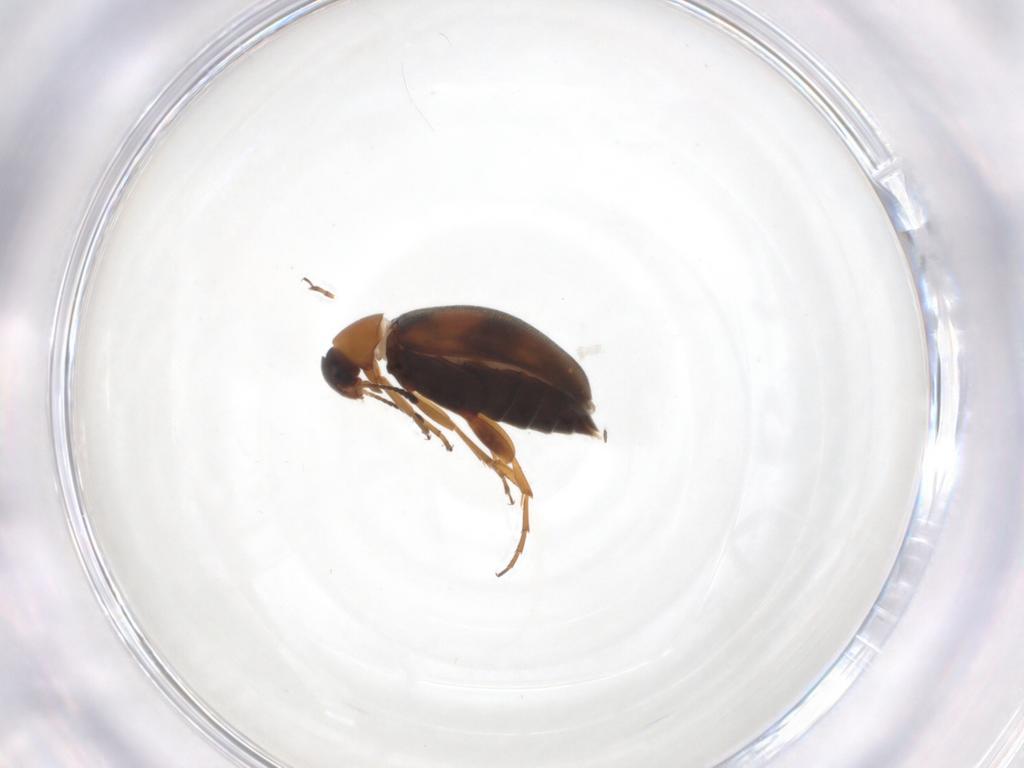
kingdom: Animalia
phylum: Arthropoda
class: Insecta
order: Coleoptera
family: Scraptiidae
